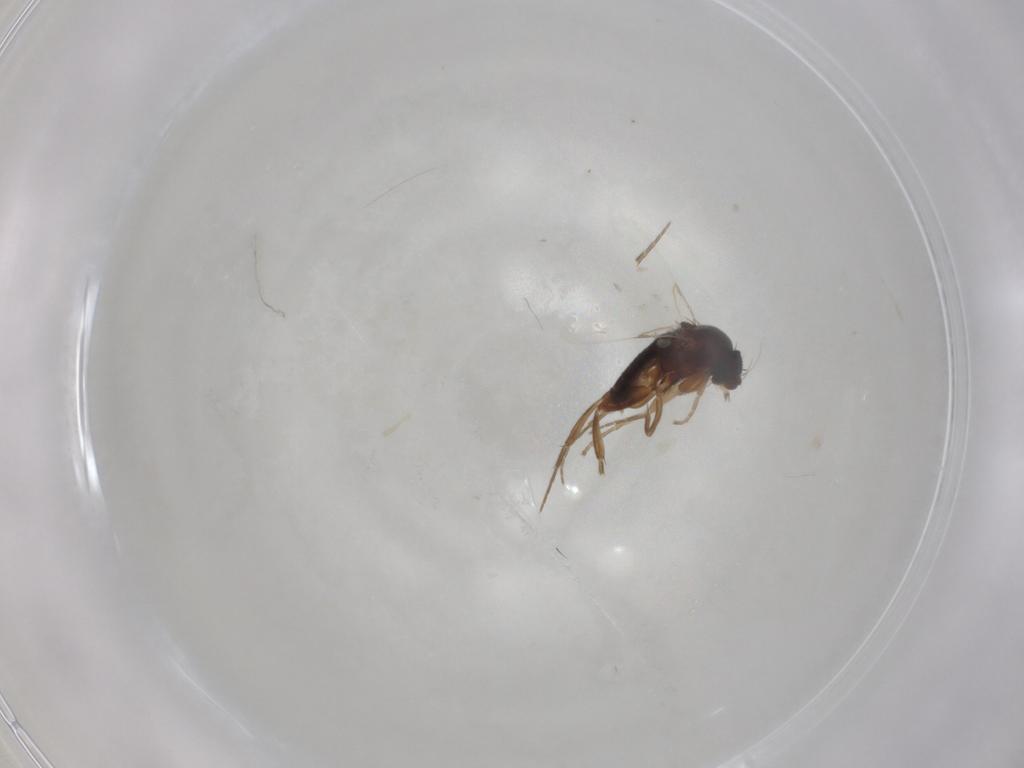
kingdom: Animalia
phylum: Arthropoda
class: Insecta
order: Diptera
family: Phoridae
